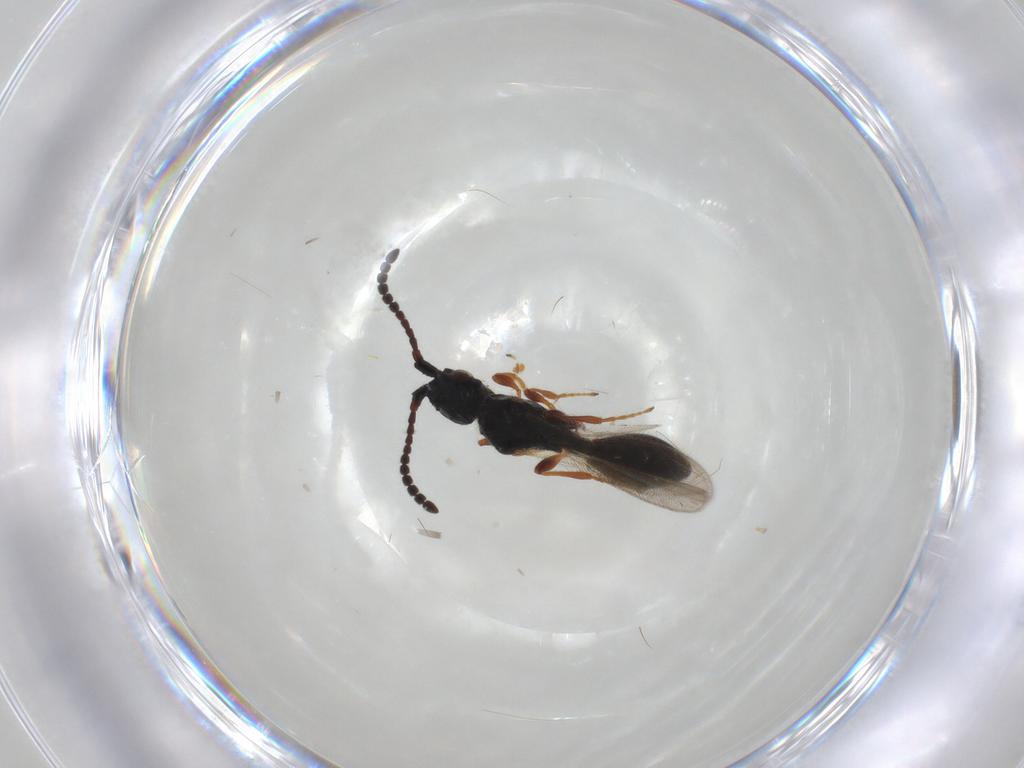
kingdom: Animalia
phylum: Arthropoda
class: Insecta
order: Hymenoptera
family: Diapriidae
